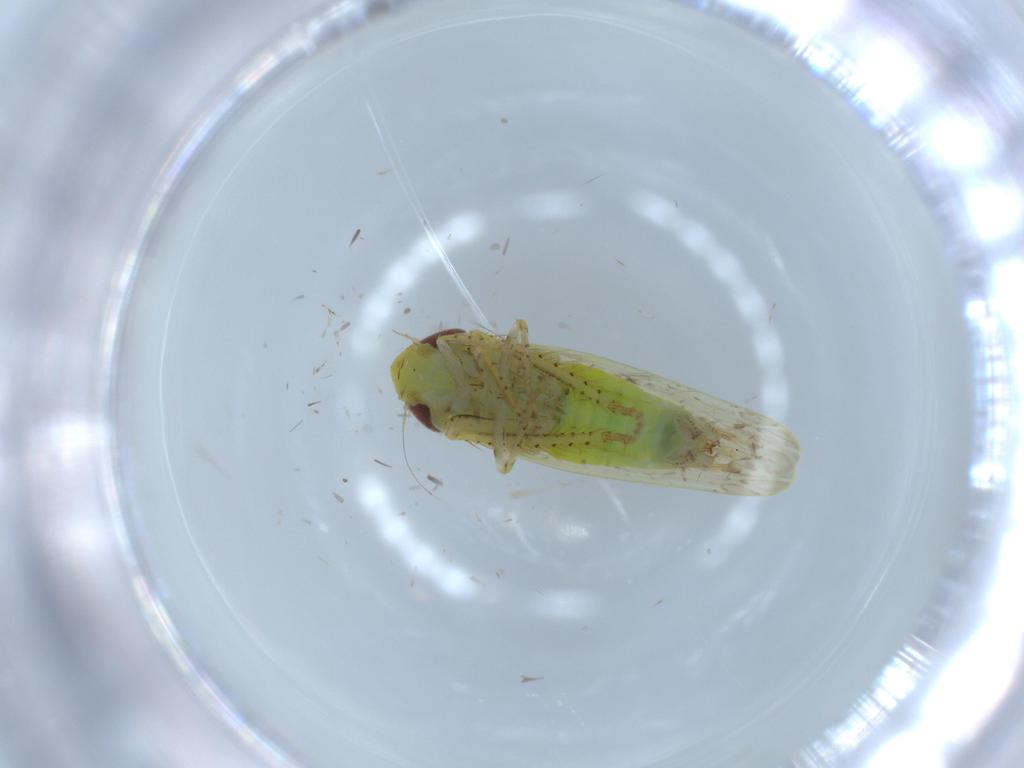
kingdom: Animalia
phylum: Arthropoda
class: Insecta
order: Hemiptera
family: Cicadellidae
